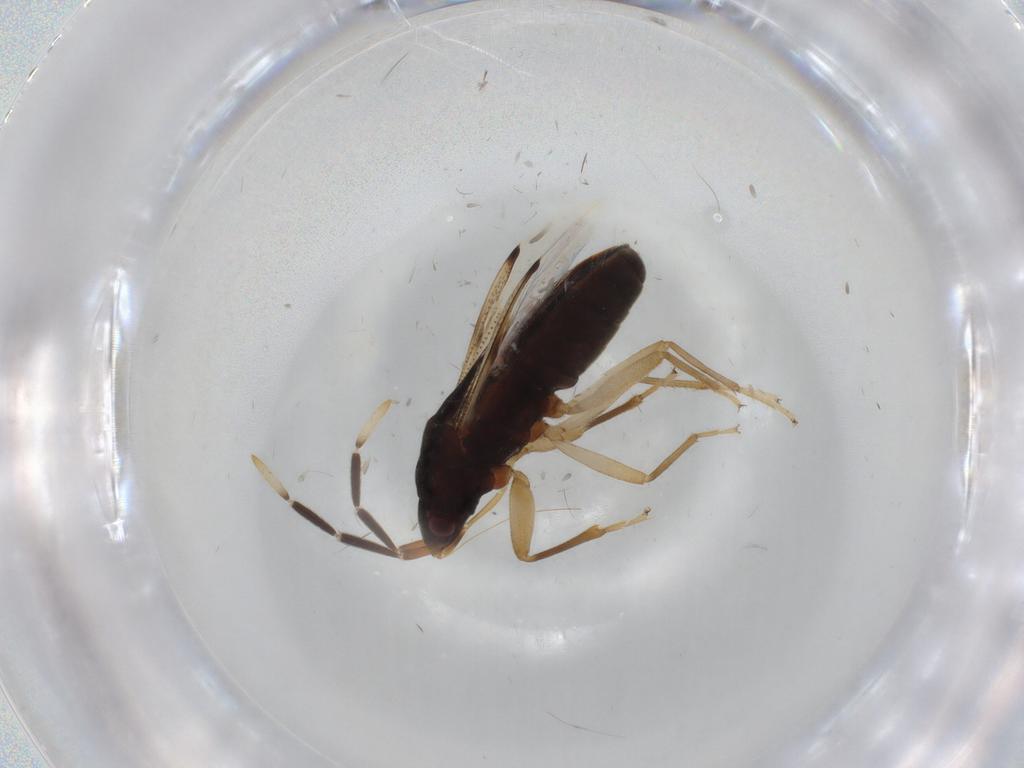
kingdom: Animalia
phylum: Arthropoda
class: Insecta
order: Hemiptera
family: Rhyparochromidae
